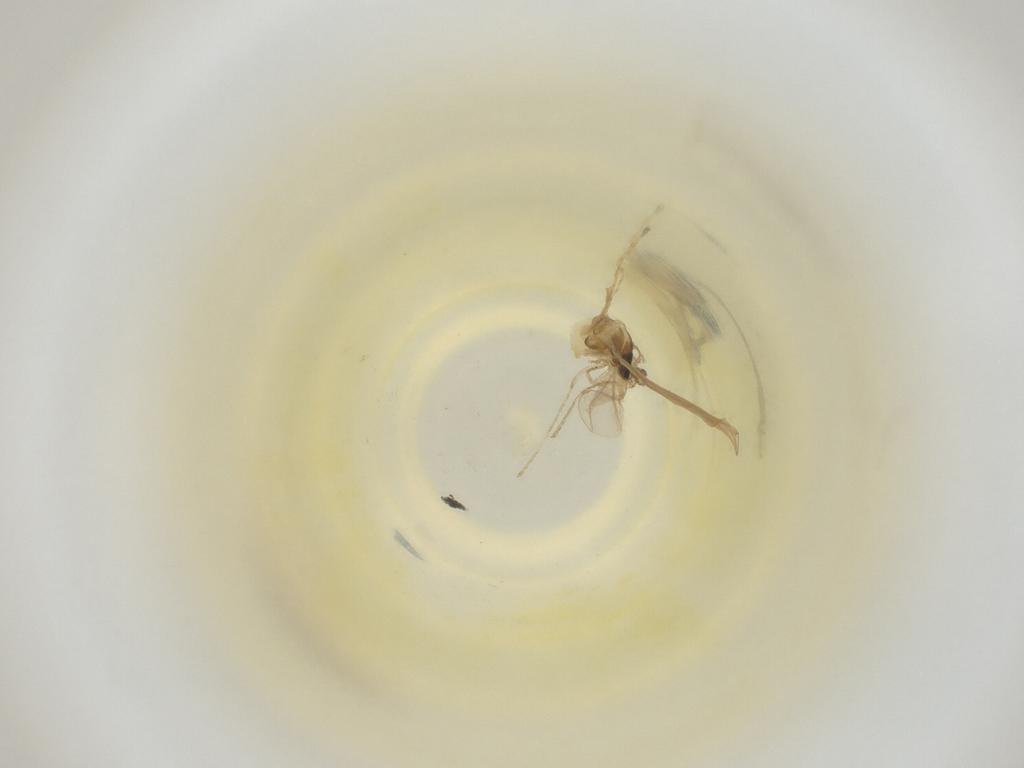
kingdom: Animalia
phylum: Arthropoda
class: Insecta
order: Diptera
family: Cecidomyiidae
